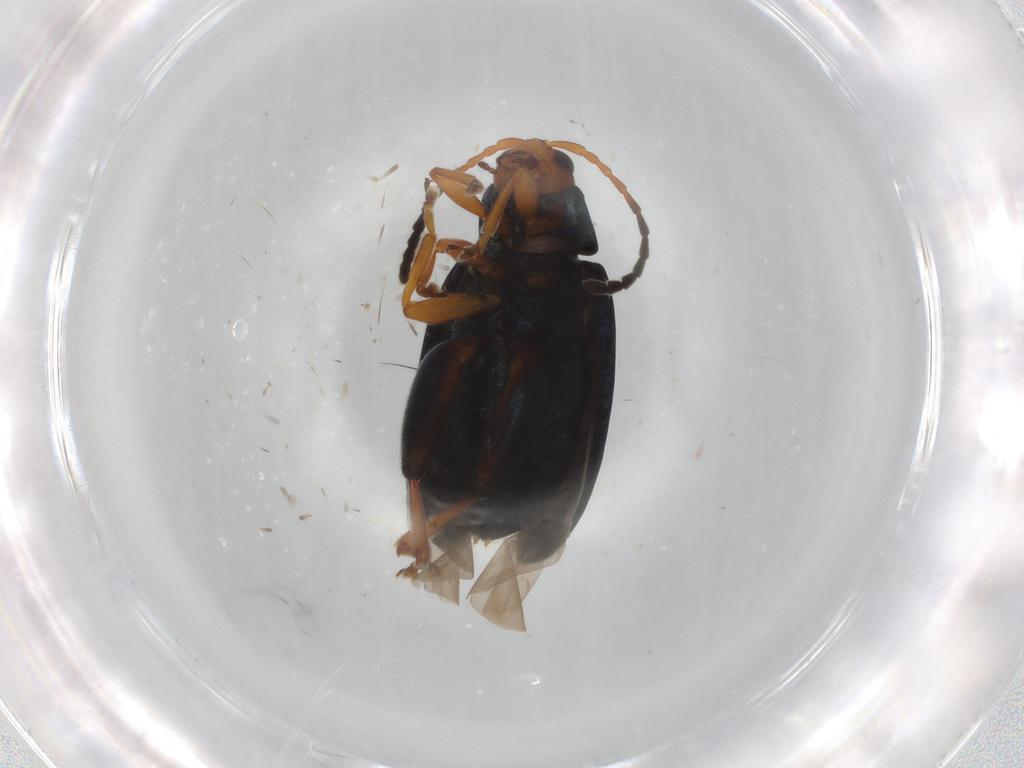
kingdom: Animalia
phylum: Arthropoda
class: Insecta
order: Coleoptera
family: Chrysomelidae
